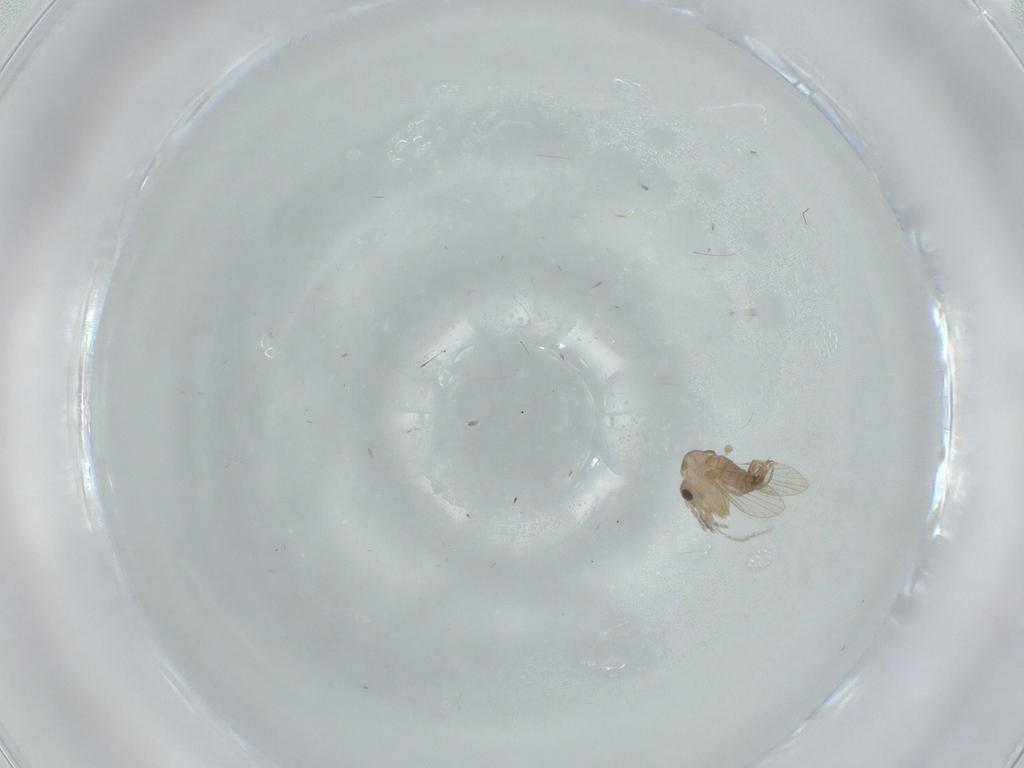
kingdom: Animalia
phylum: Arthropoda
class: Insecta
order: Diptera
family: Psychodidae
